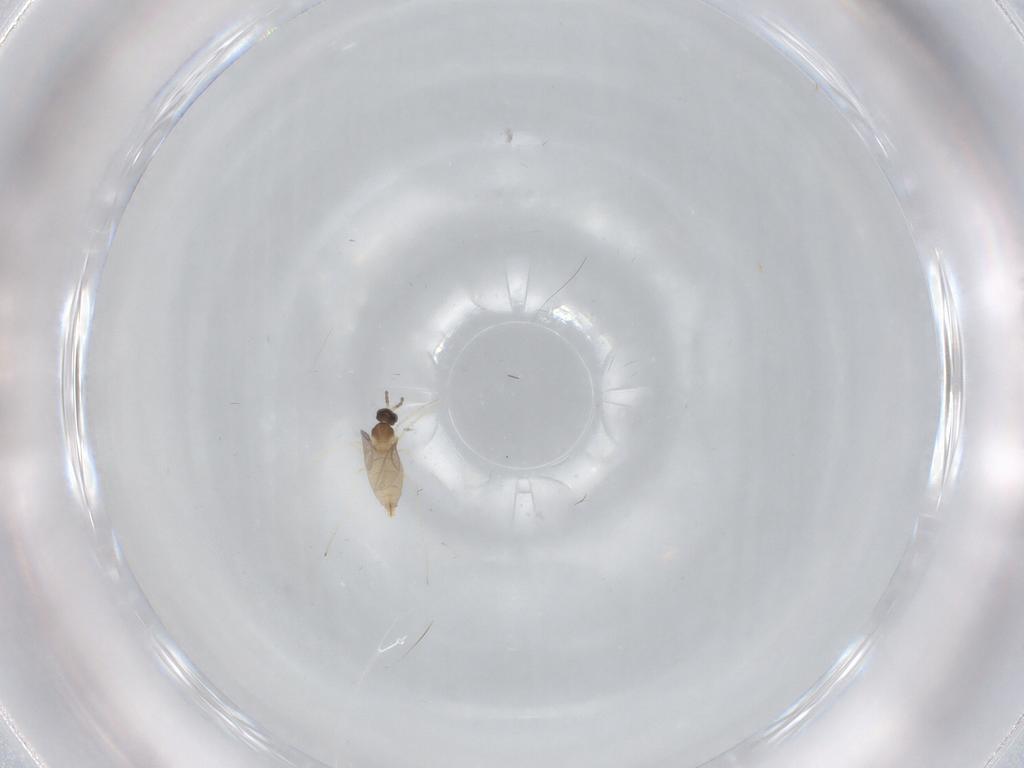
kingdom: Animalia
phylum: Arthropoda
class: Insecta
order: Diptera
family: Cecidomyiidae
